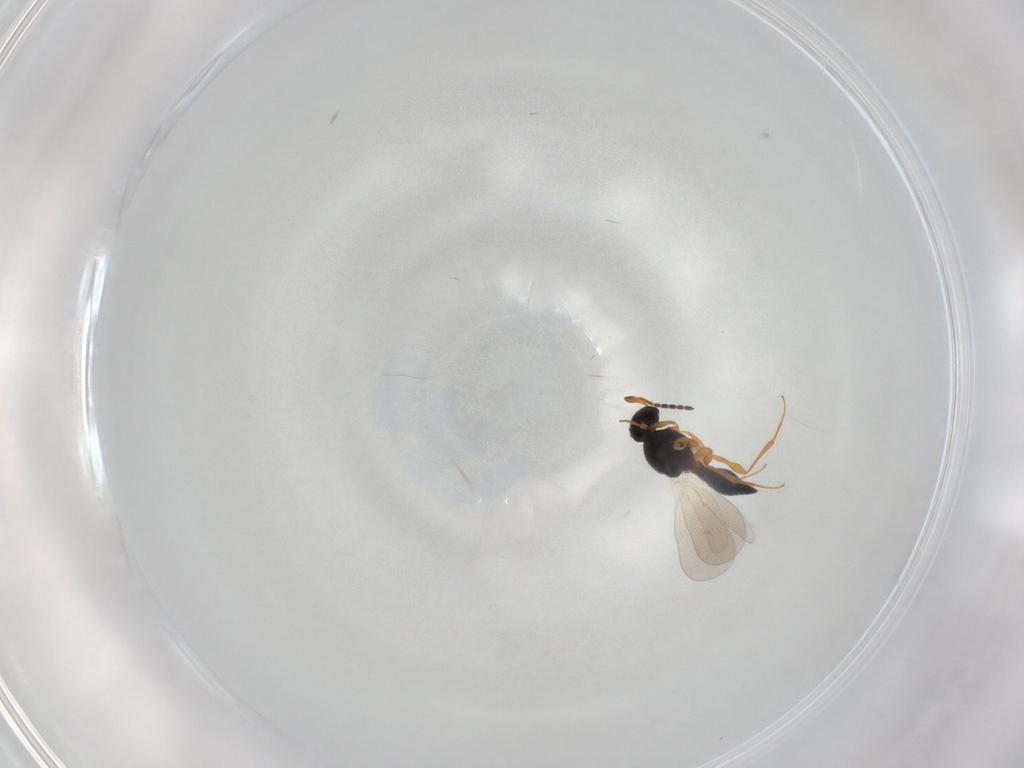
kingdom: Animalia
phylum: Arthropoda
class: Insecta
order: Hymenoptera
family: Platygastridae
